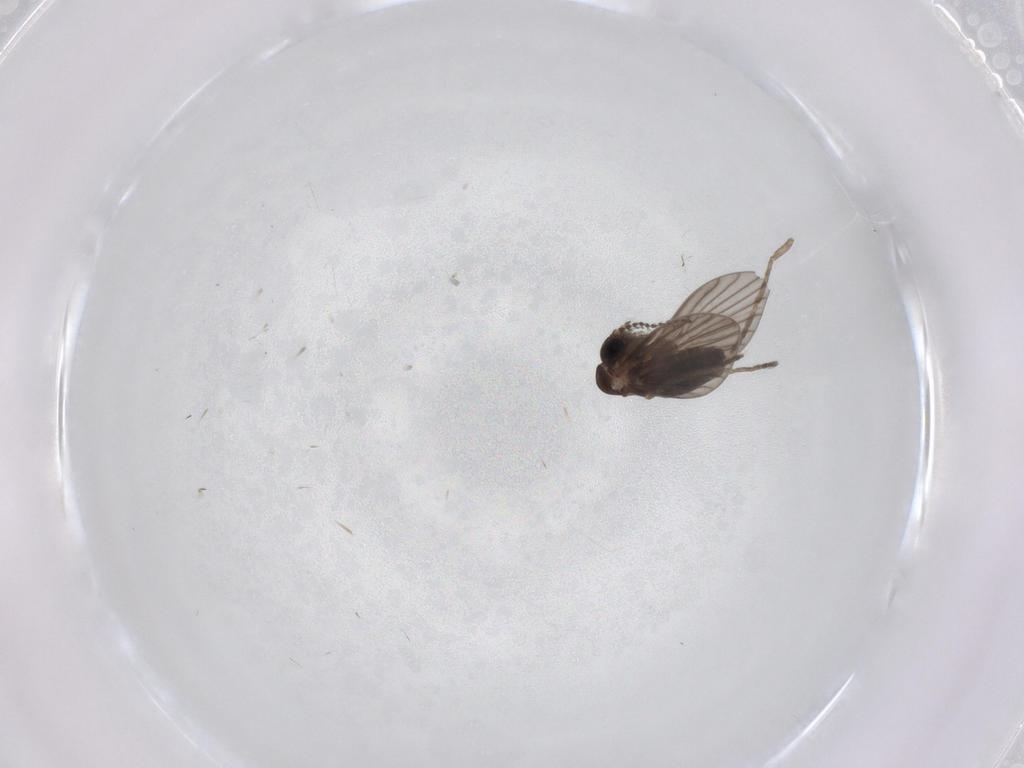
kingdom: Animalia
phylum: Arthropoda
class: Insecta
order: Diptera
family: Chironomidae
